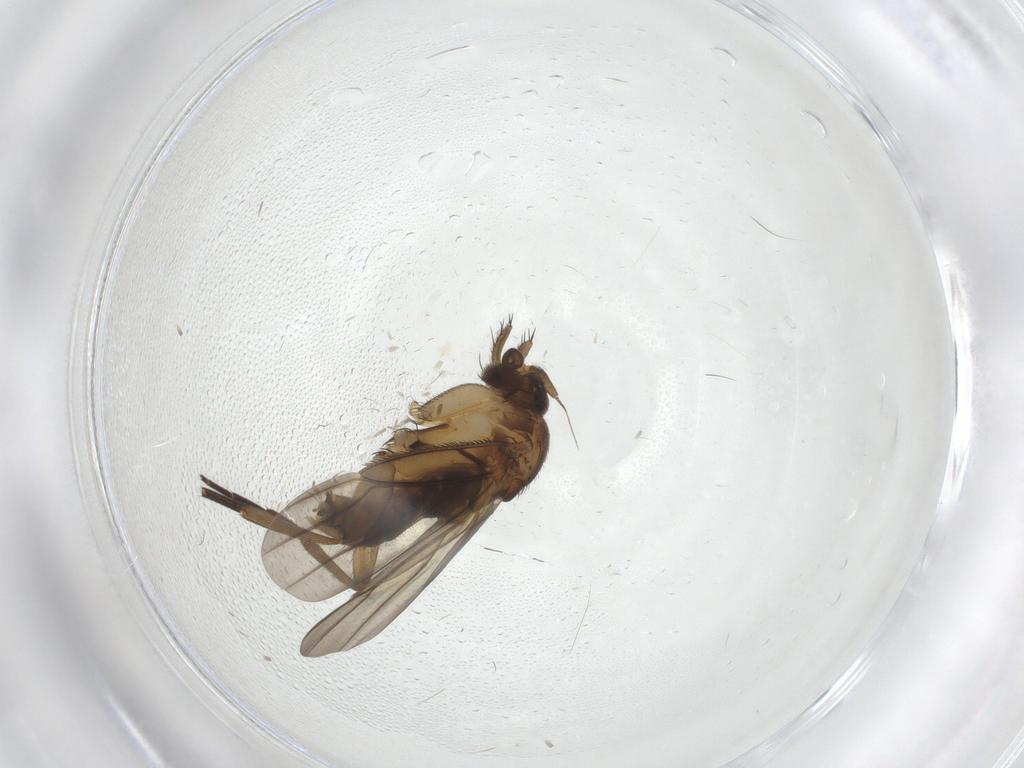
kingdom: Animalia
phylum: Arthropoda
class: Insecta
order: Diptera
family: Phoridae
